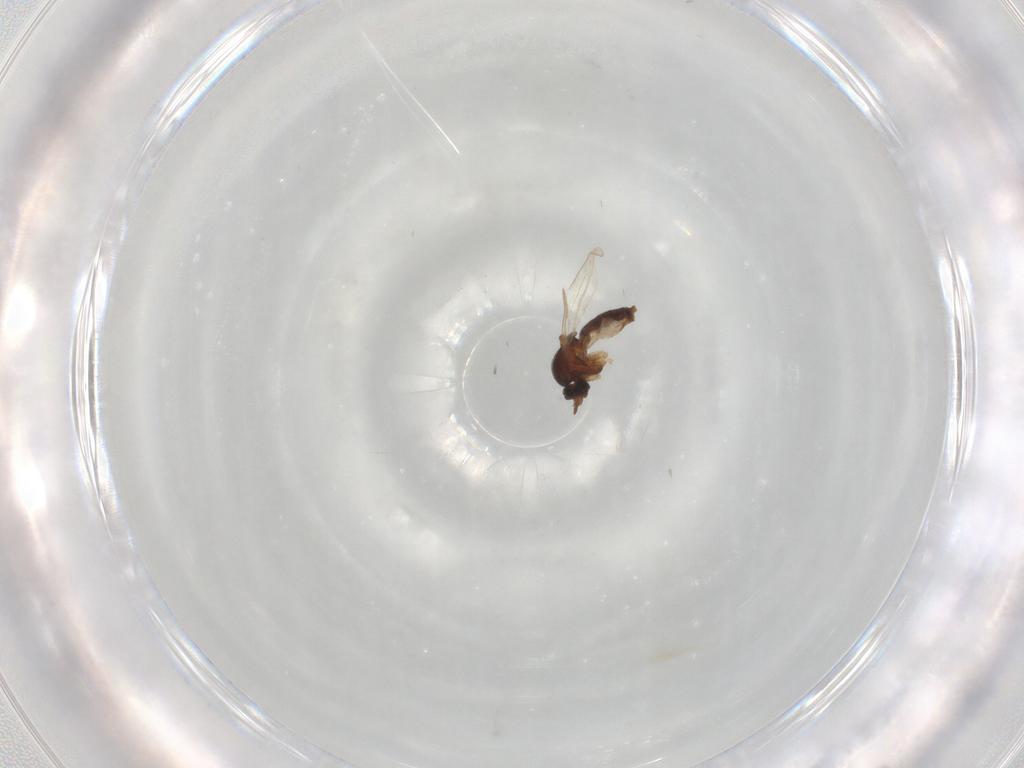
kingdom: Animalia
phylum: Arthropoda
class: Insecta
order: Diptera
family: Ceratopogonidae
